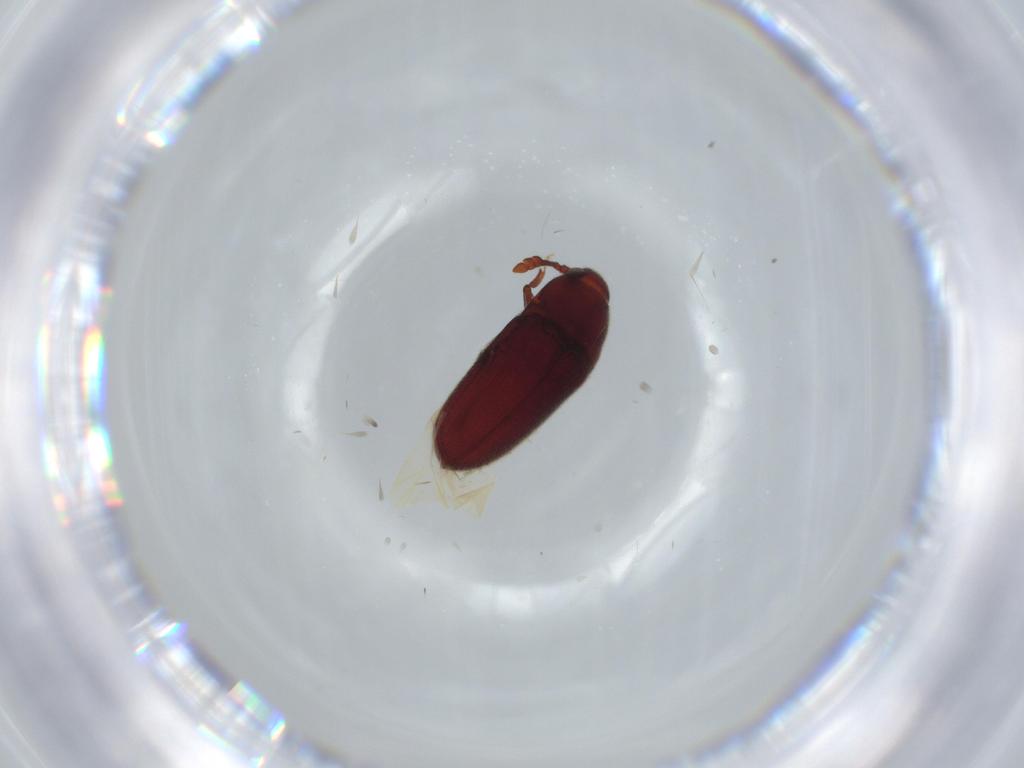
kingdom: Animalia
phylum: Arthropoda
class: Insecta
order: Coleoptera
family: Throscidae
